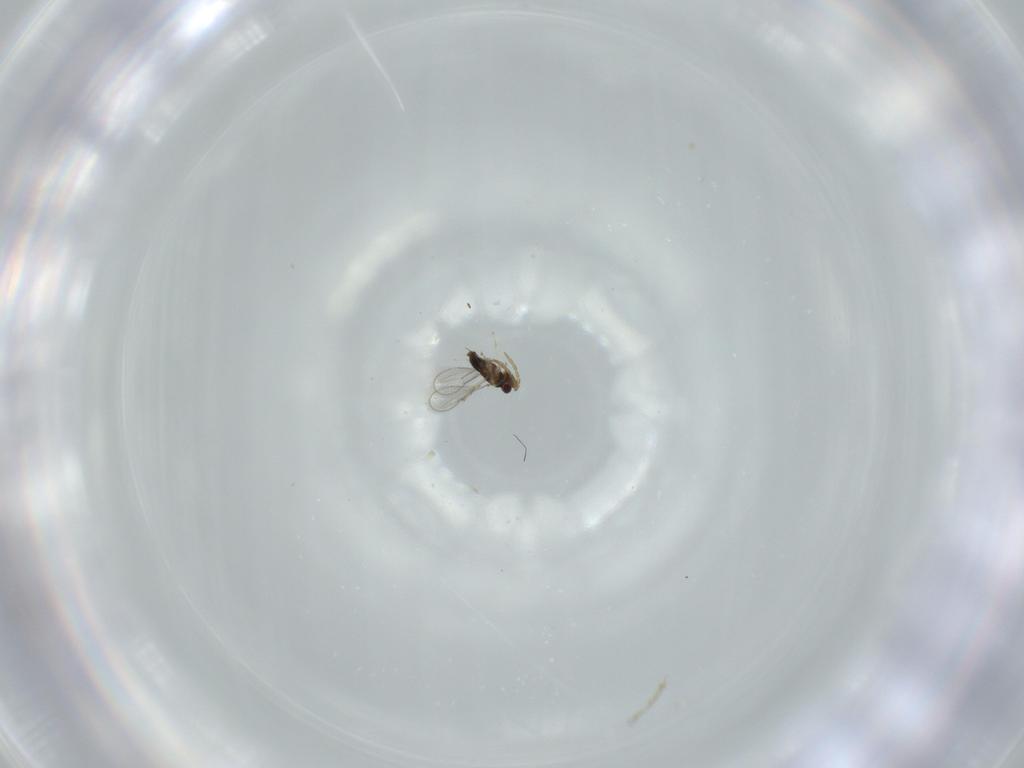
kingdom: Animalia
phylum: Arthropoda
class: Insecta
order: Hymenoptera
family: Mymaridae
